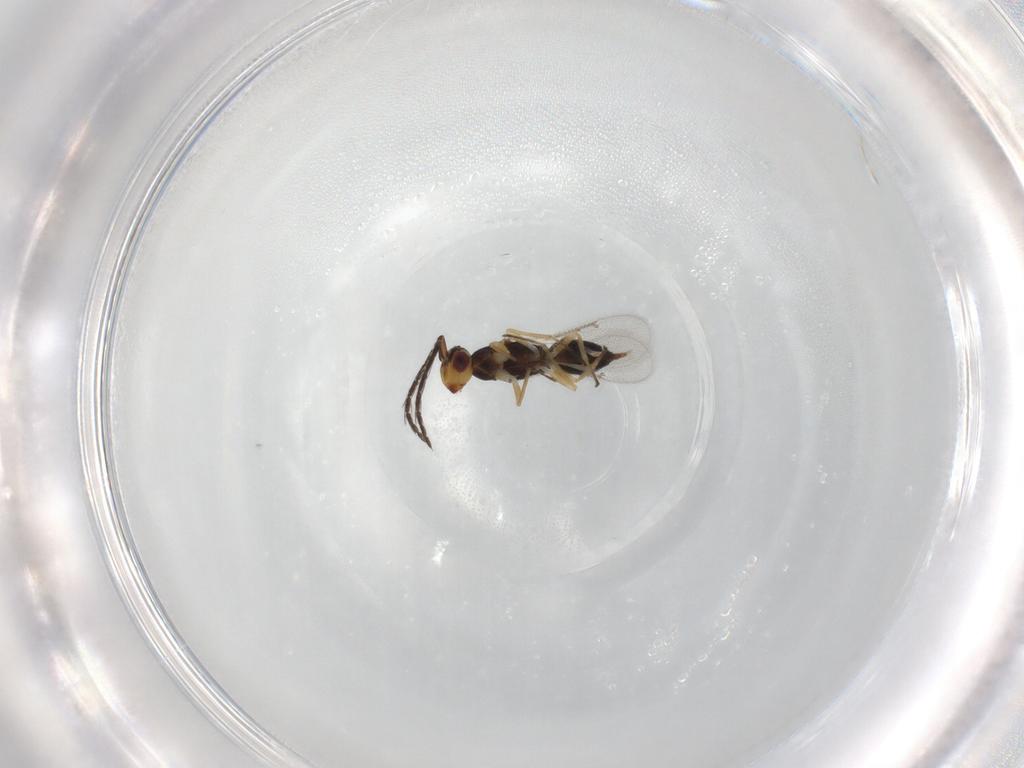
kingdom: Animalia
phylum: Arthropoda
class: Insecta
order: Hymenoptera
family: Eulophidae
